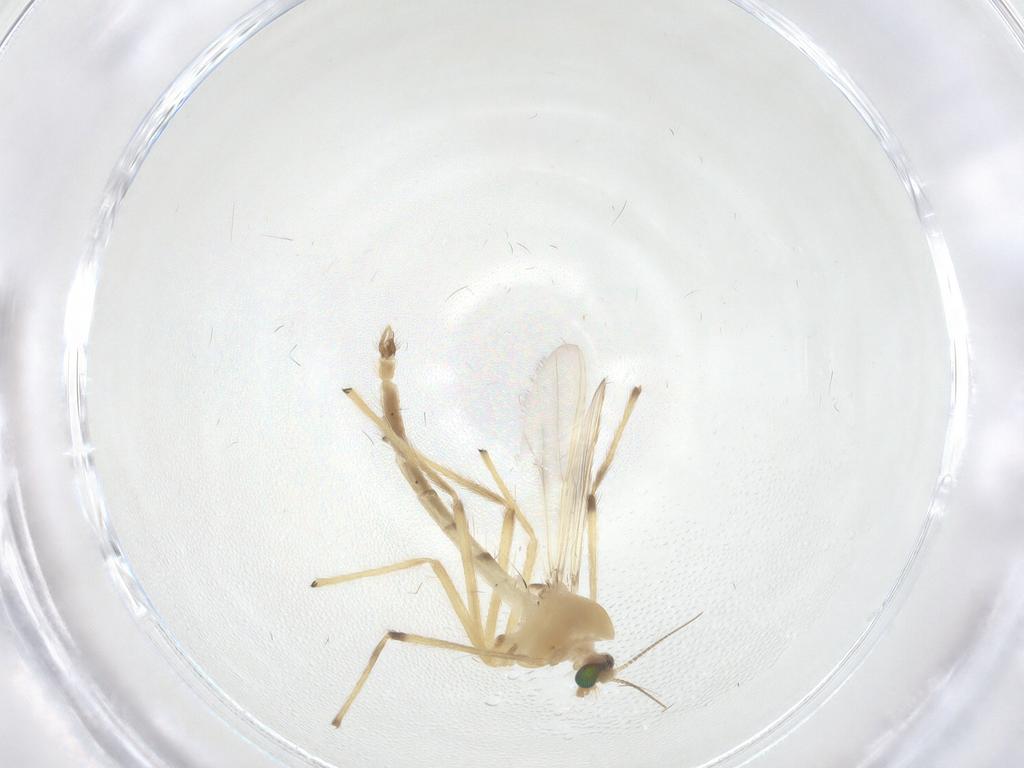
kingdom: Animalia
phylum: Arthropoda
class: Insecta
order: Diptera
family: Chironomidae
